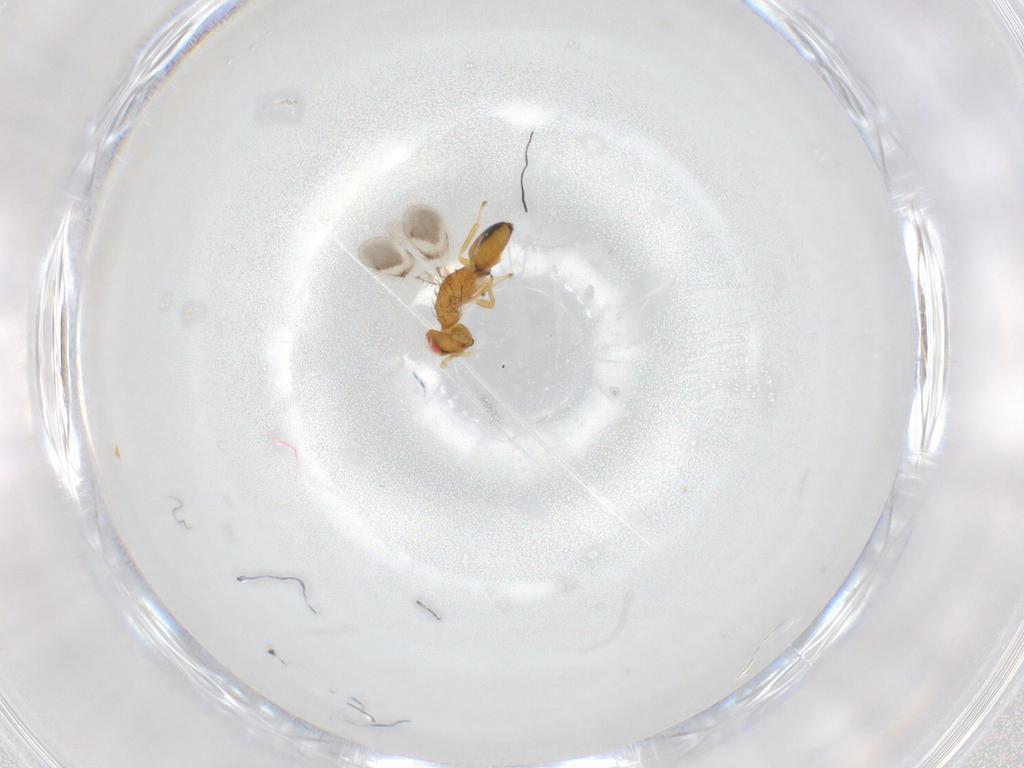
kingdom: Animalia
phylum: Arthropoda
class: Insecta
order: Hymenoptera
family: Eulophidae
